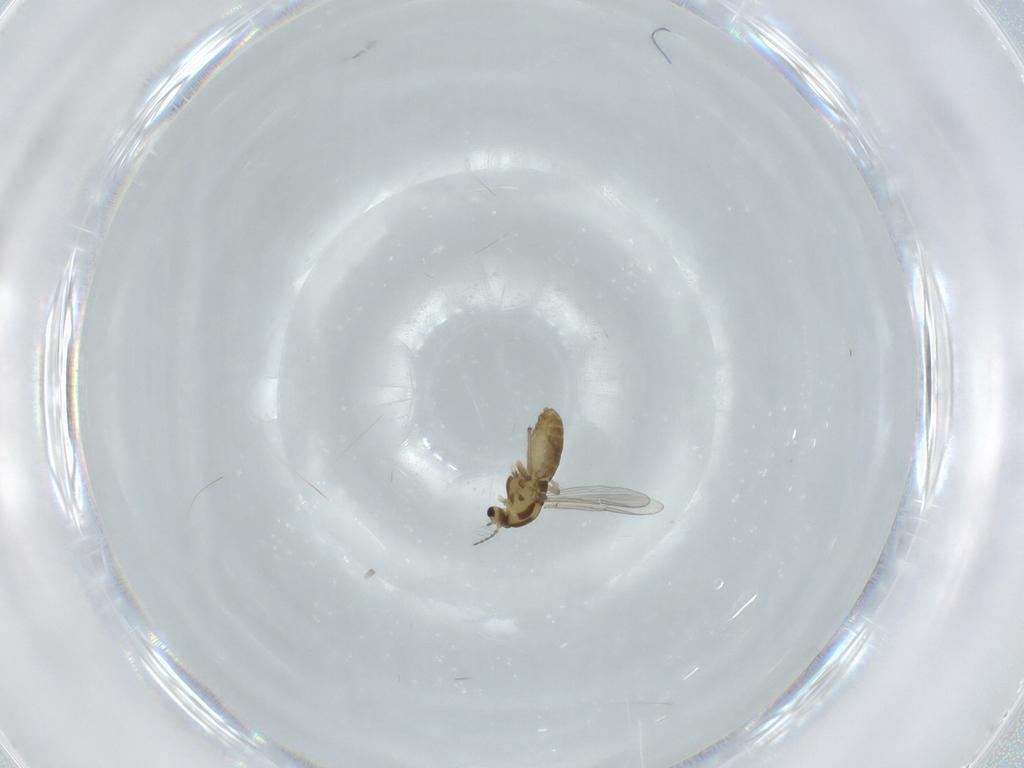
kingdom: Animalia
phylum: Arthropoda
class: Insecta
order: Diptera
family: Chironomidae
